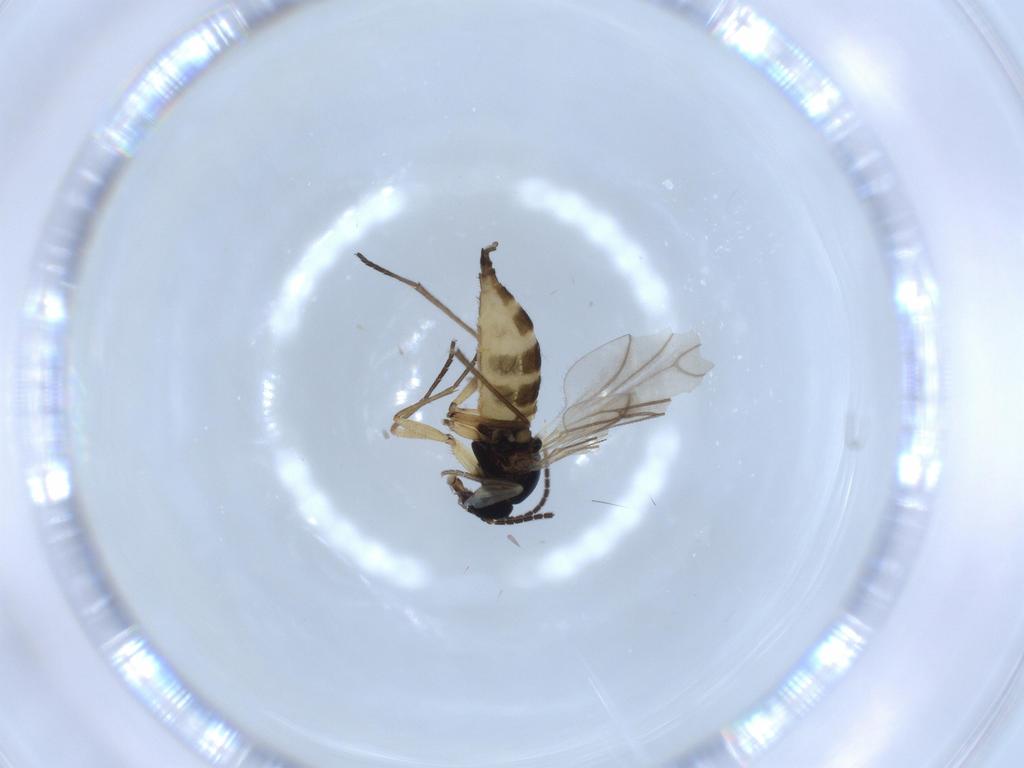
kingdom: Animalia
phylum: Arthropoda
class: Insecta
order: Diptera
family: Sciaridae
